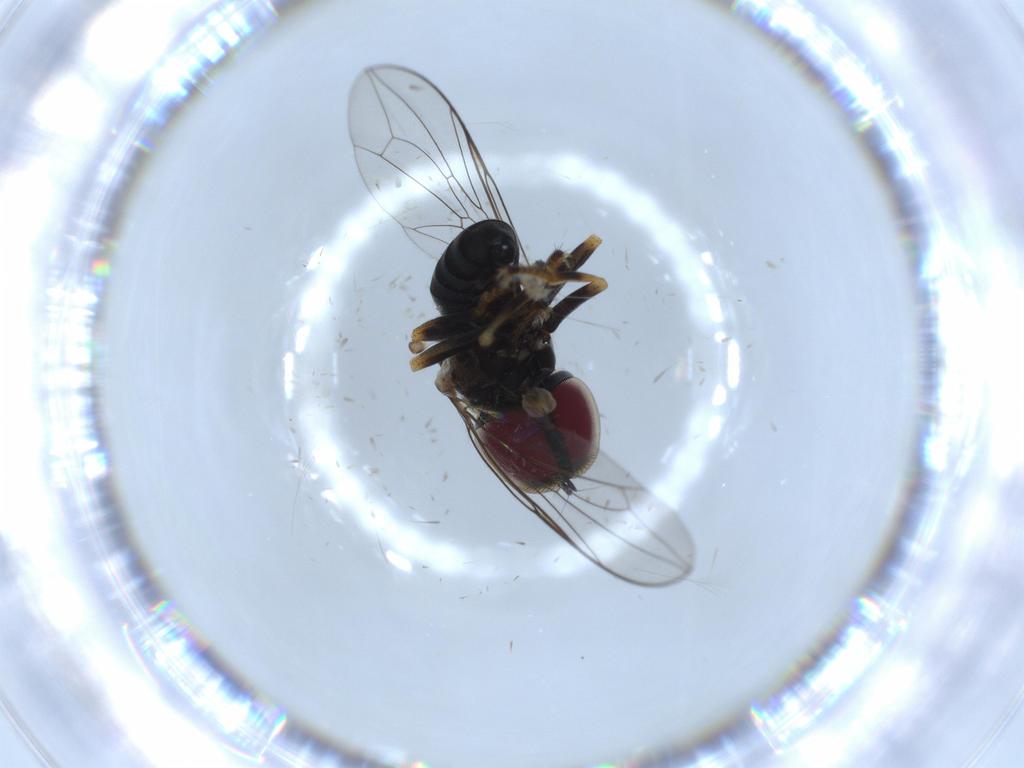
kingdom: Animalia
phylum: Arthropoda
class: Insecta
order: Diptera
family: Pipunculidae
